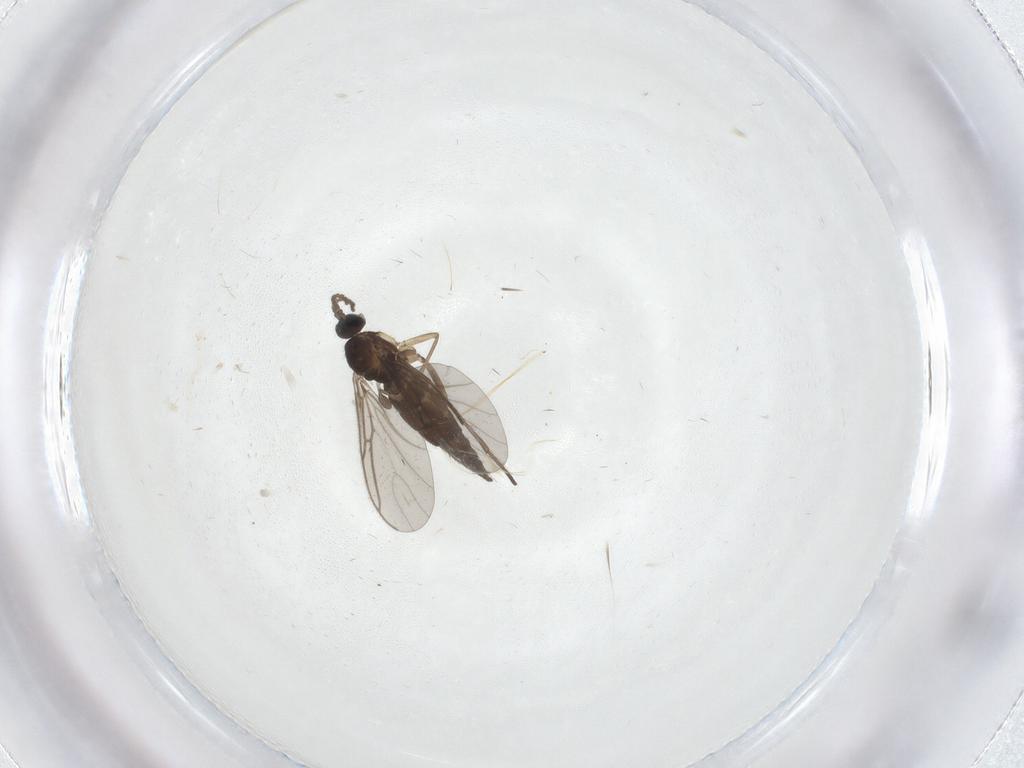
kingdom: Animalia
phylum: Arthropoda
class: Insecta
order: Diptera
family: Sciaridae
